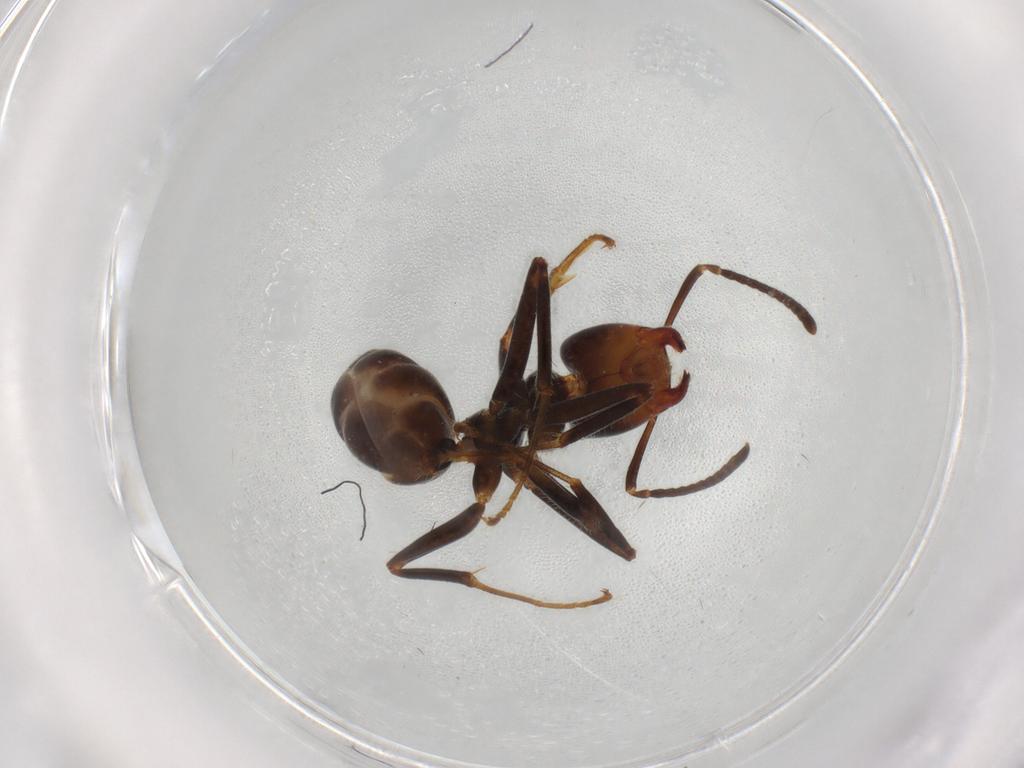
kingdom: Animalia
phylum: Arthropoda
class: Insecta
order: Hymenoptera
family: Formicidae
